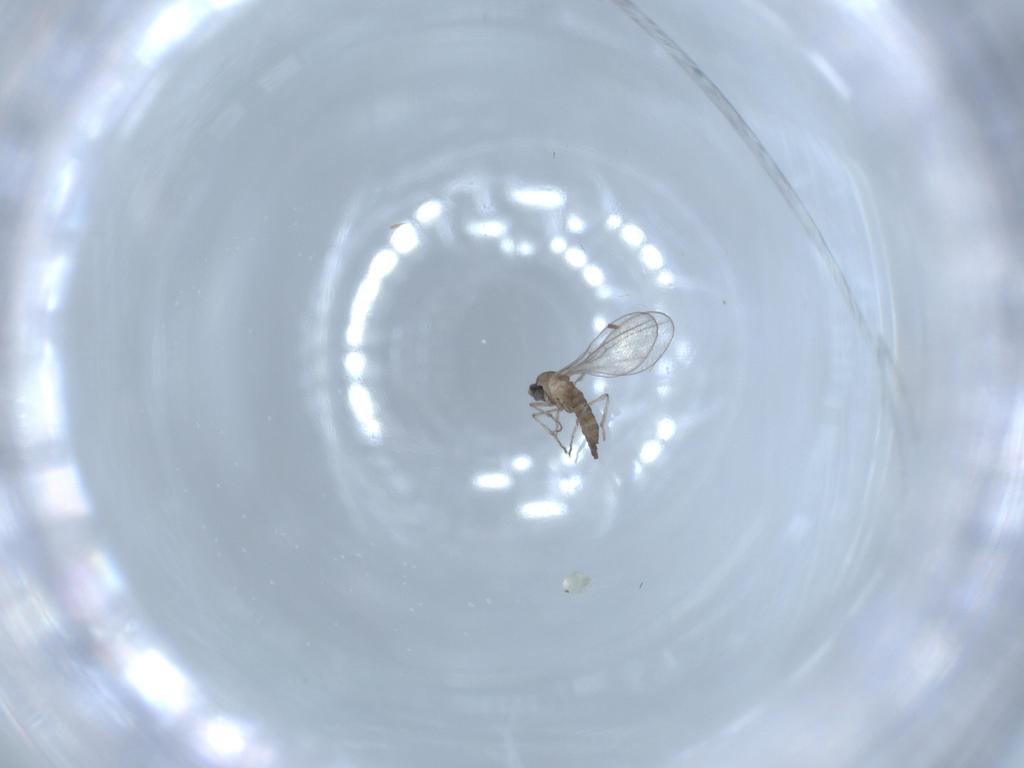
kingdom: Animalia
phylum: Arthropoda
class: Insecta
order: Diptera
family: Cecidomyiidae
